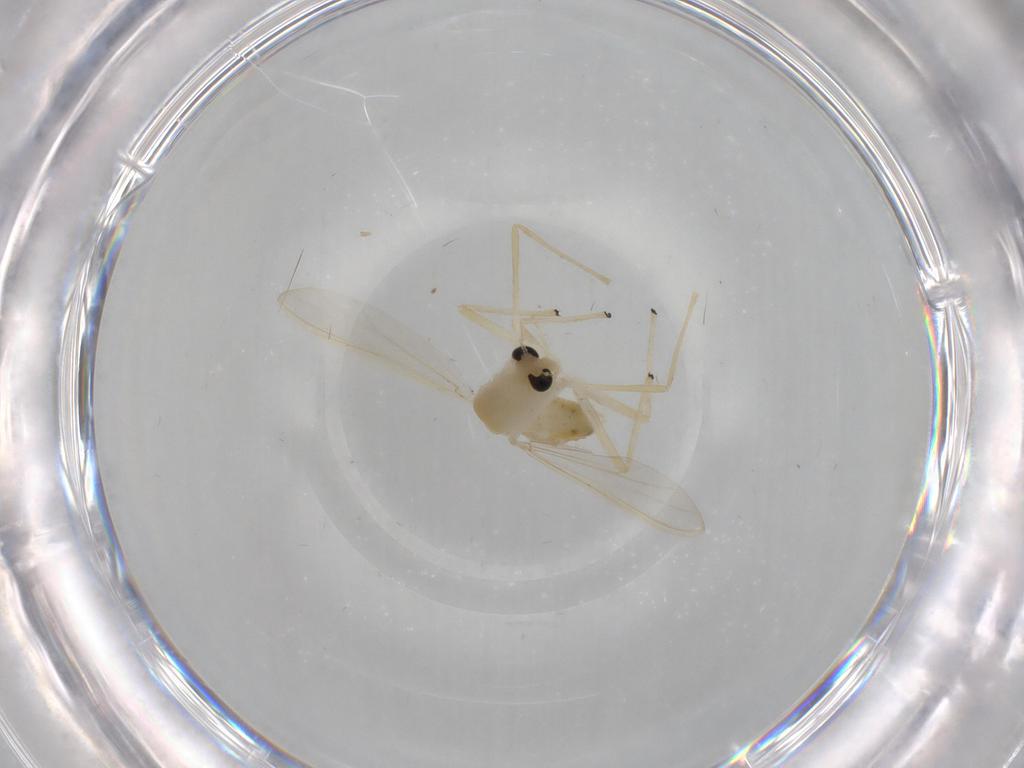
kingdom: Animalia
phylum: Arthropoda
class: Insecta
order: Diptera
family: Chironomidae
